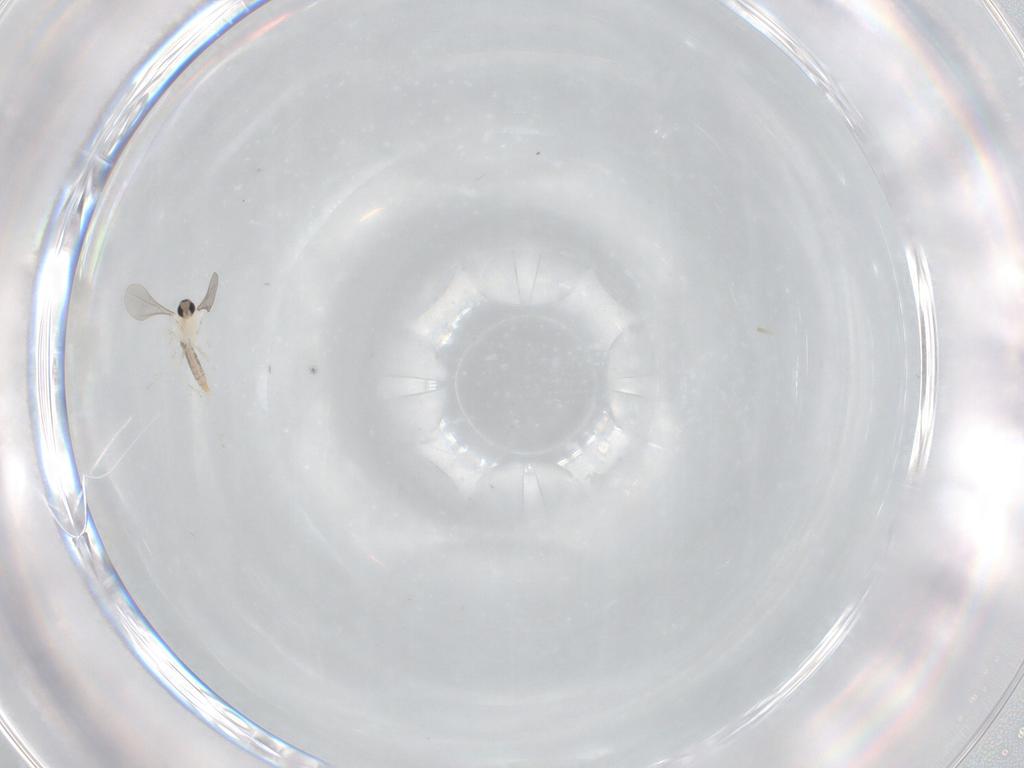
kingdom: Animalia
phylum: Arthropoda
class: Insecta
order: Diptera
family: Cecidomyiidae
